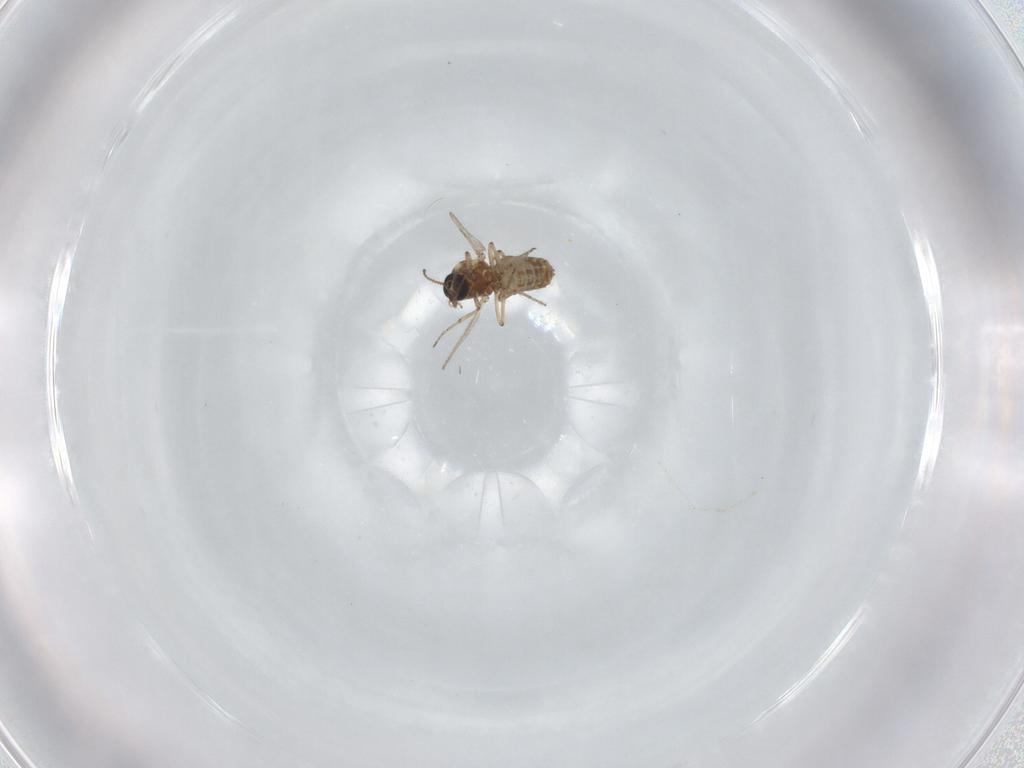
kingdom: Animalia
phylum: Arthropoda
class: Insecta
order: Diptera
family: Ceratopogonidae
